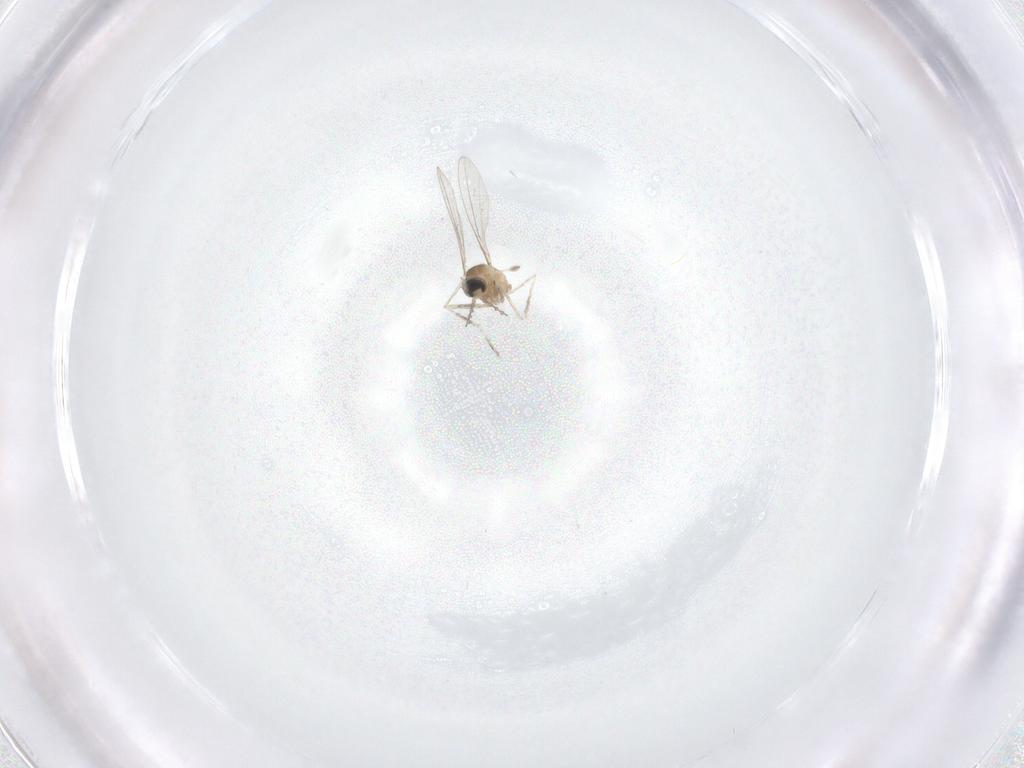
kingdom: Animalia
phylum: Arthropoda
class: Insecta
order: Diptera
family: Cecidomyiidae
